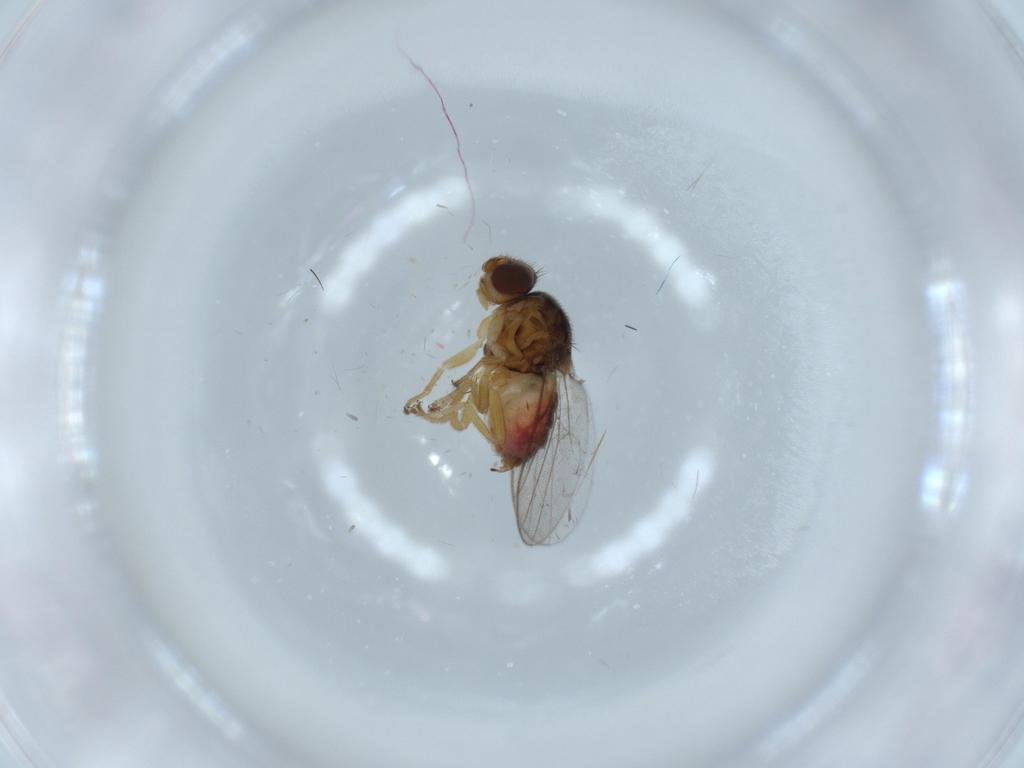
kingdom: Animalia
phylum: Arthropoda
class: Insecta
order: Diptera
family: Chloropidae
